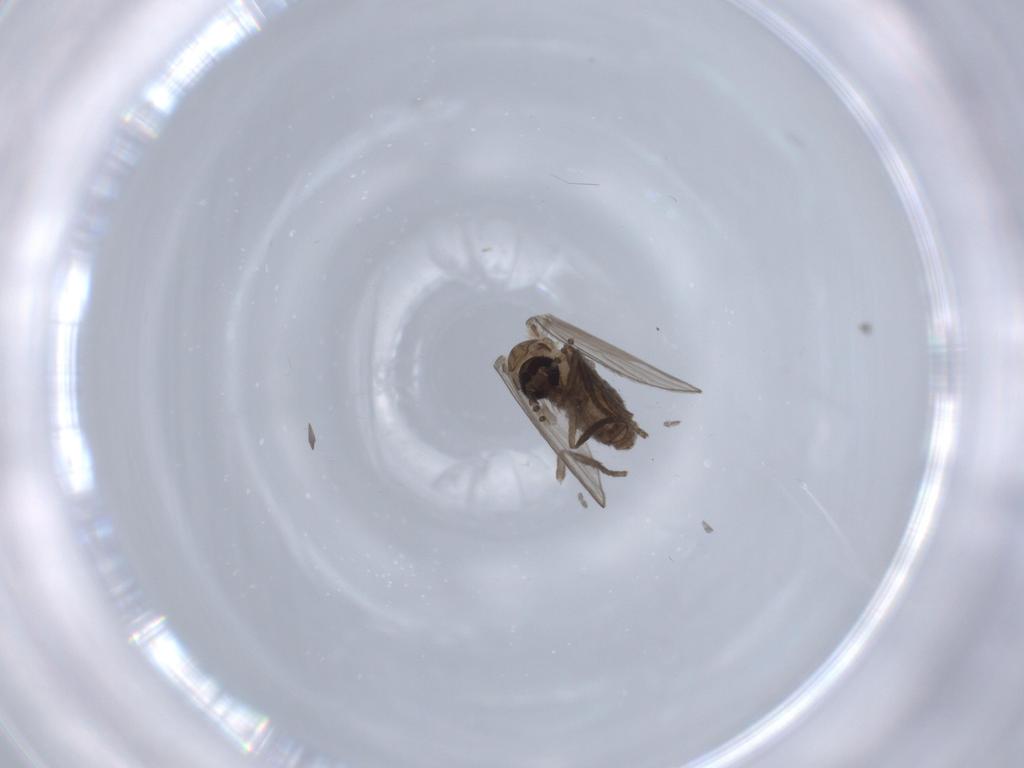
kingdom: Animalia
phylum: Arthropoda
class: Insecta
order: Diptera
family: Psychodidae
